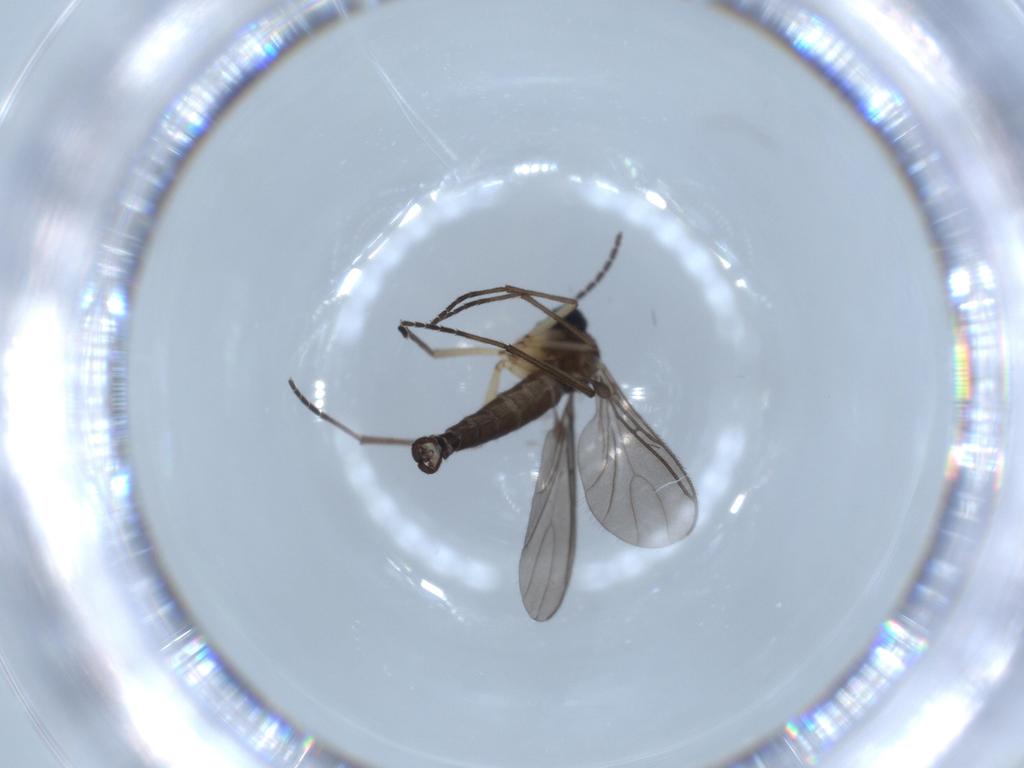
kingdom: Animalia
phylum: Arthropoda
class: Insecta
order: Diptera
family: Sciaridae
